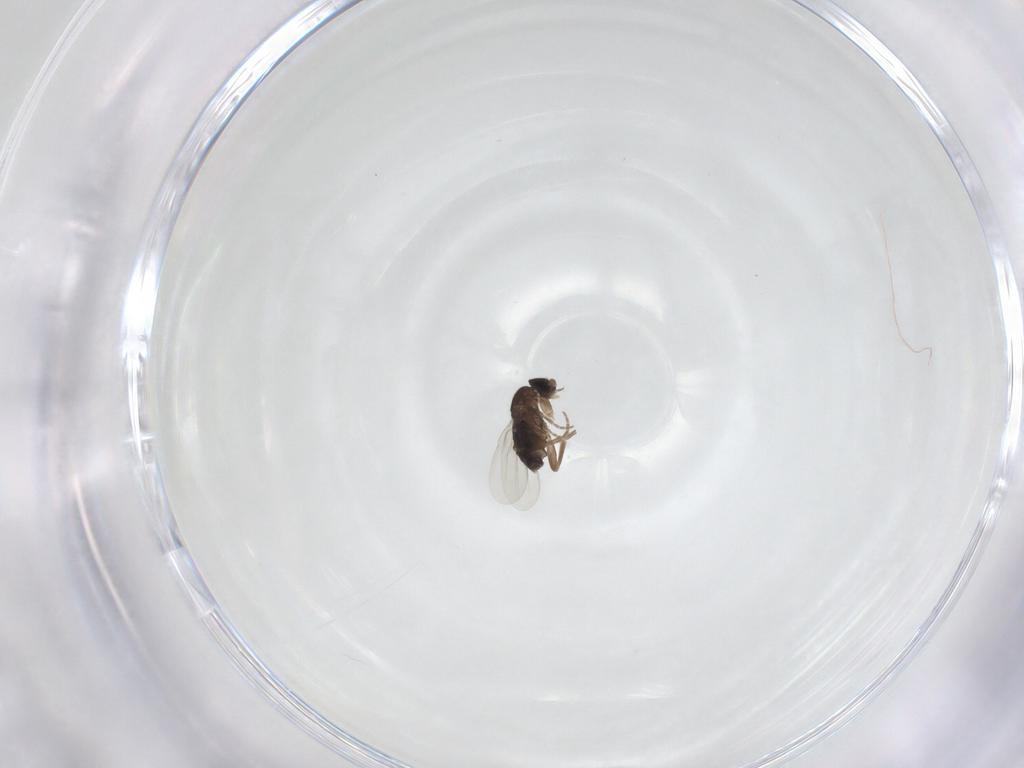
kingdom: Animalia
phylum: Arthropoda
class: Insecta
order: Diptera
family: Phoridae
